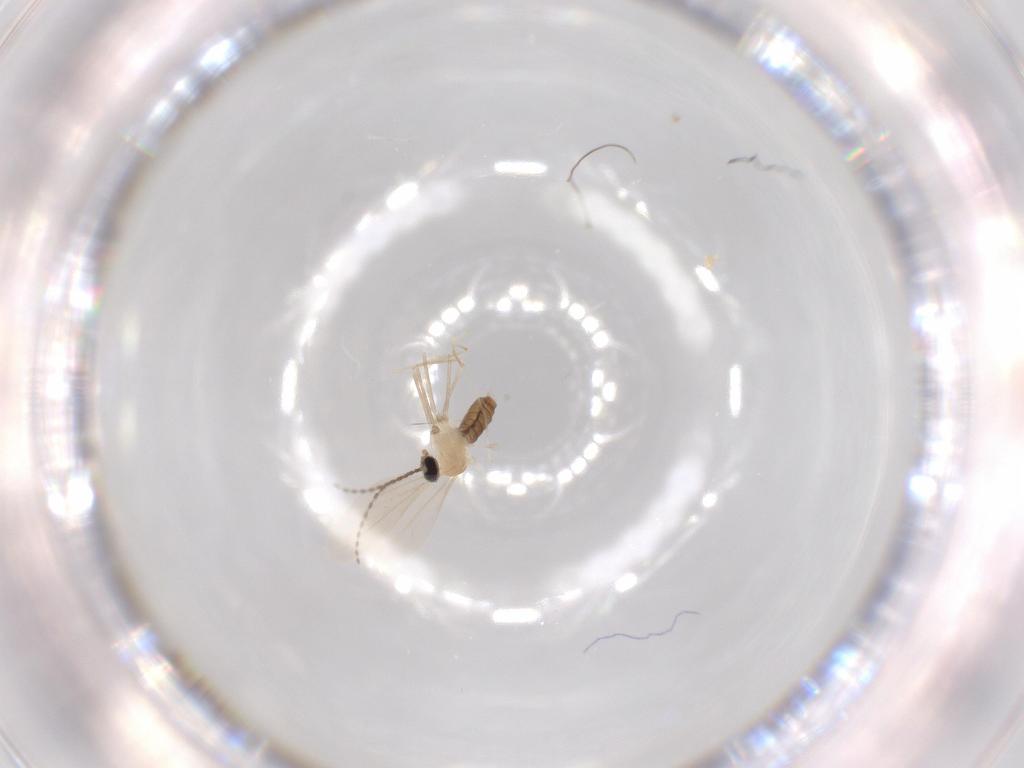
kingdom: Animalia
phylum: Arthropoda
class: Insecta
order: Diptera
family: Cecidomyiidae
